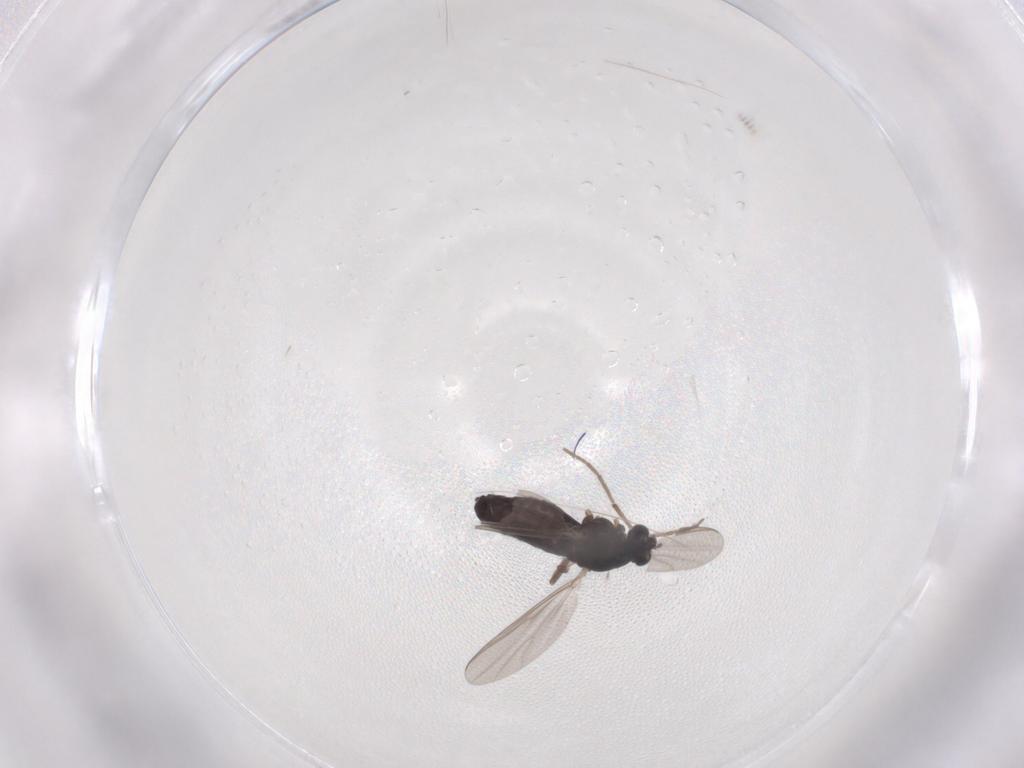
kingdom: Animalia
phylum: Arthropoda
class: Insecta
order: Diptera
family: Chironomidae
